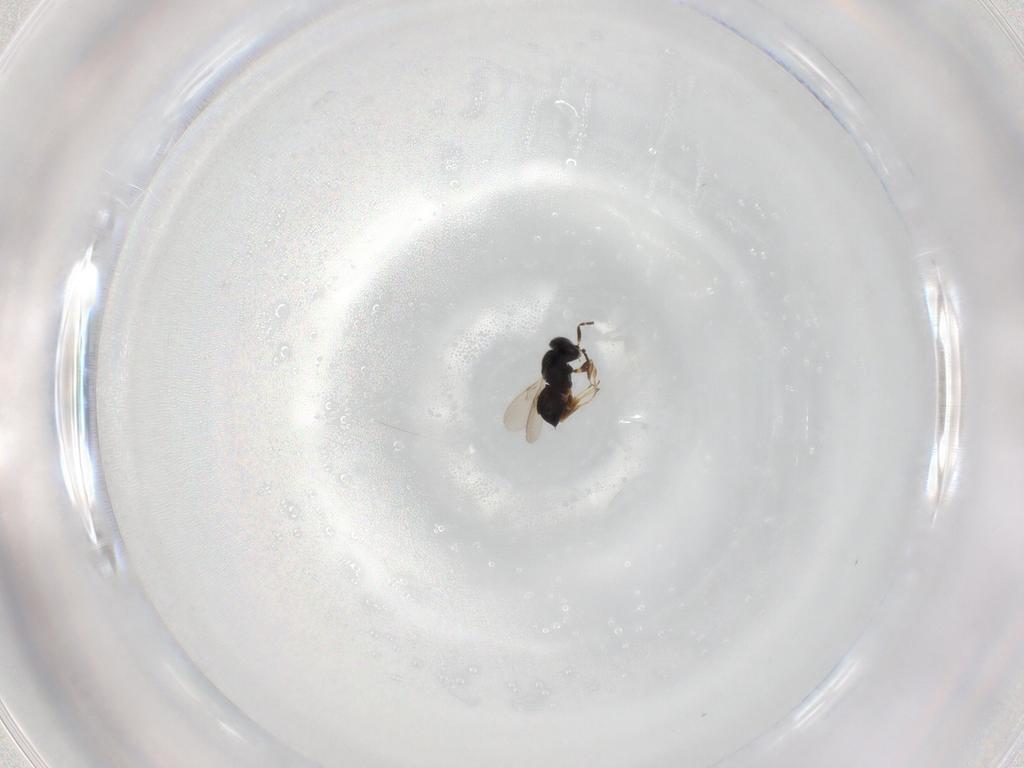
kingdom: Animalia
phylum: Arthropoda
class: Insecta
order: Hymenoptera
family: Scelionidae
